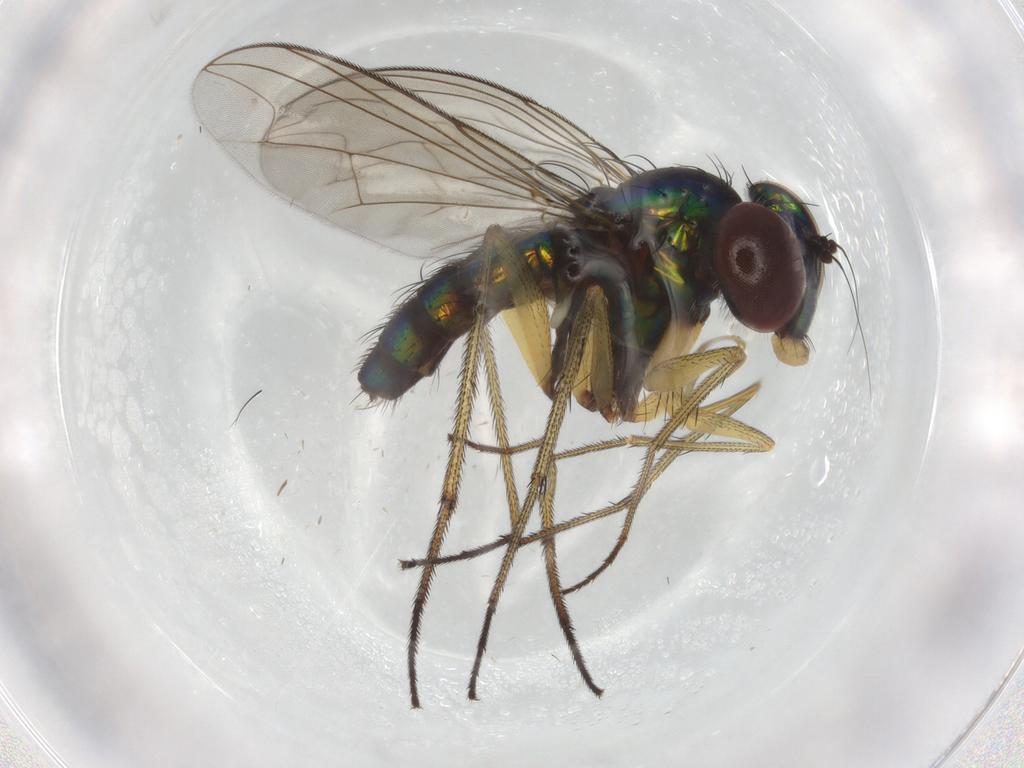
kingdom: Animalia
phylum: Arthropoda
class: Insecta
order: Diptera
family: Dolichopodidae
